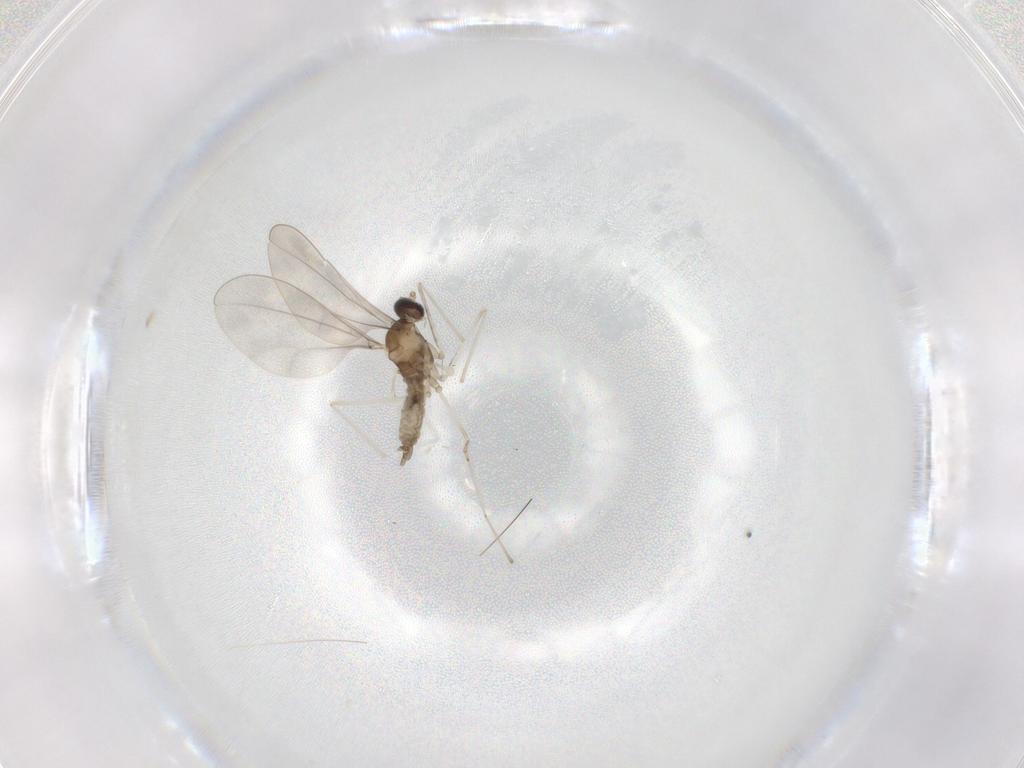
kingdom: Animalia
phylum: Arthropoda
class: Insecta
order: Diptera
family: Cecidomyiidae
